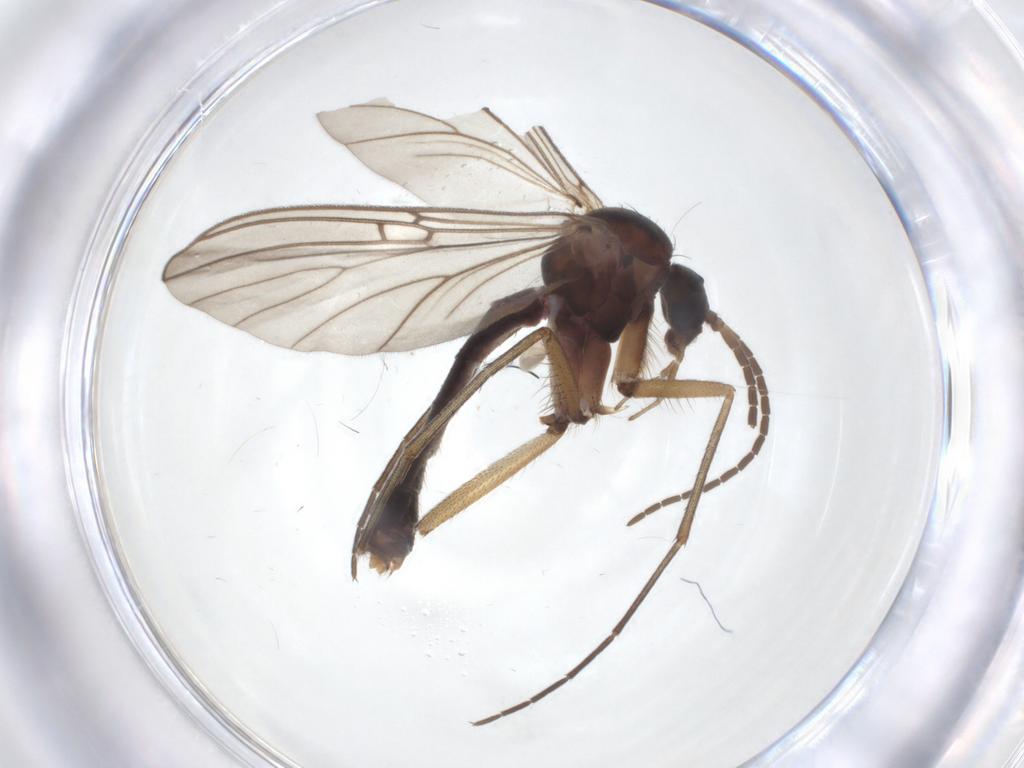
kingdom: Animalia
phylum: Arthropoda
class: Insecta
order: Diptera
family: Mycetophilidae
